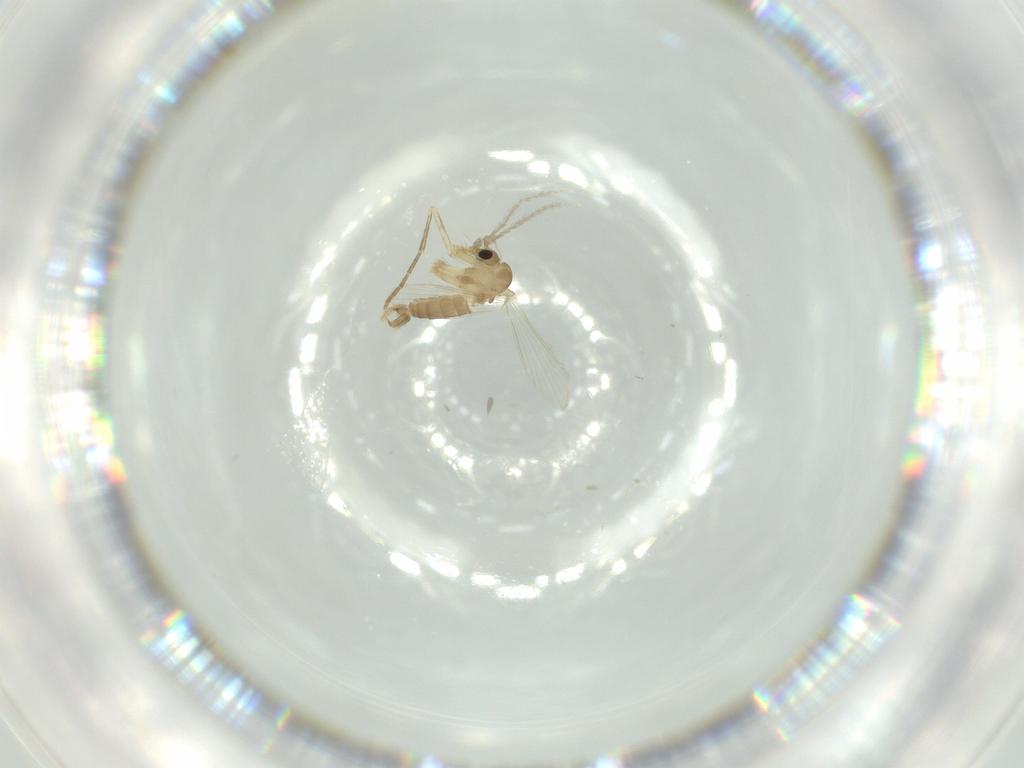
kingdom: Animalia
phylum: Arthropoda
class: Insecta
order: Diptera
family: Psychodidae
